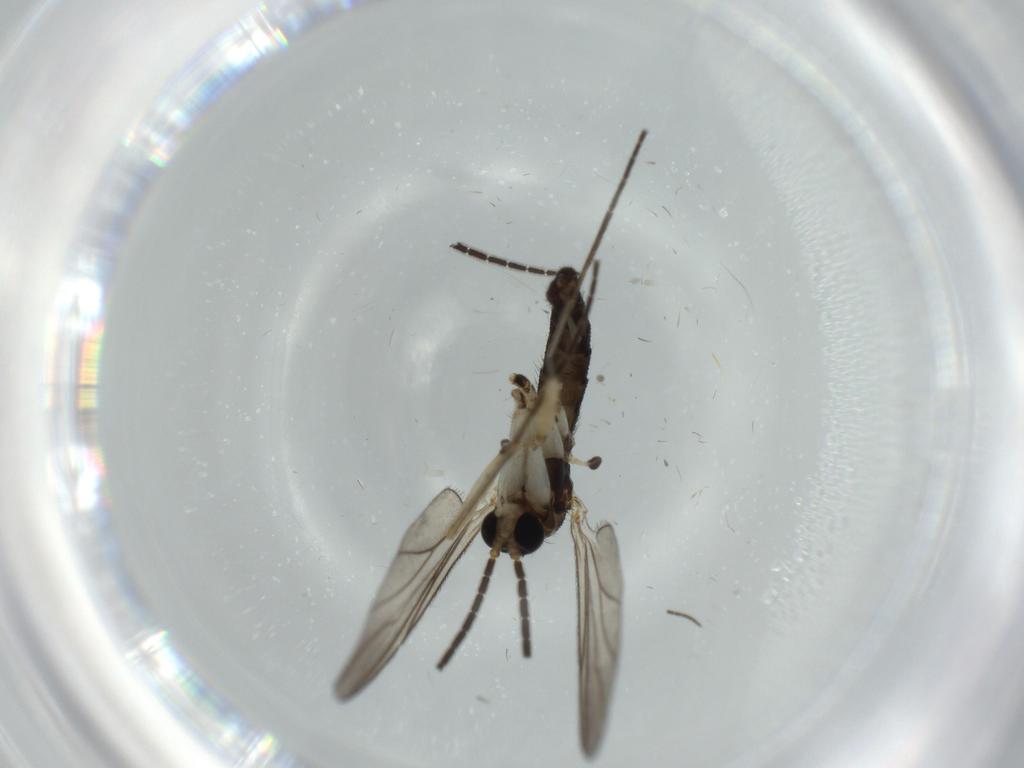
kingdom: Animalia
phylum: Arthropoda
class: Insecta
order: Diptera
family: Sciaridae
